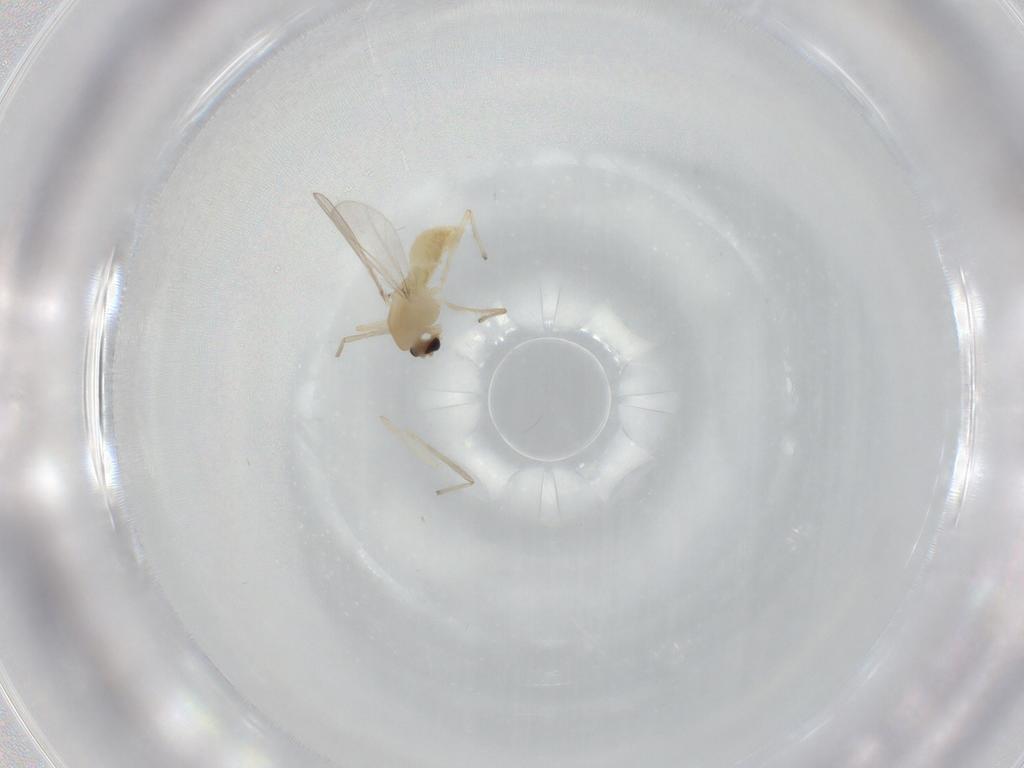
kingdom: Animalia
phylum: Arthropoda
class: Insecta
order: Diptera
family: Chironomidae
